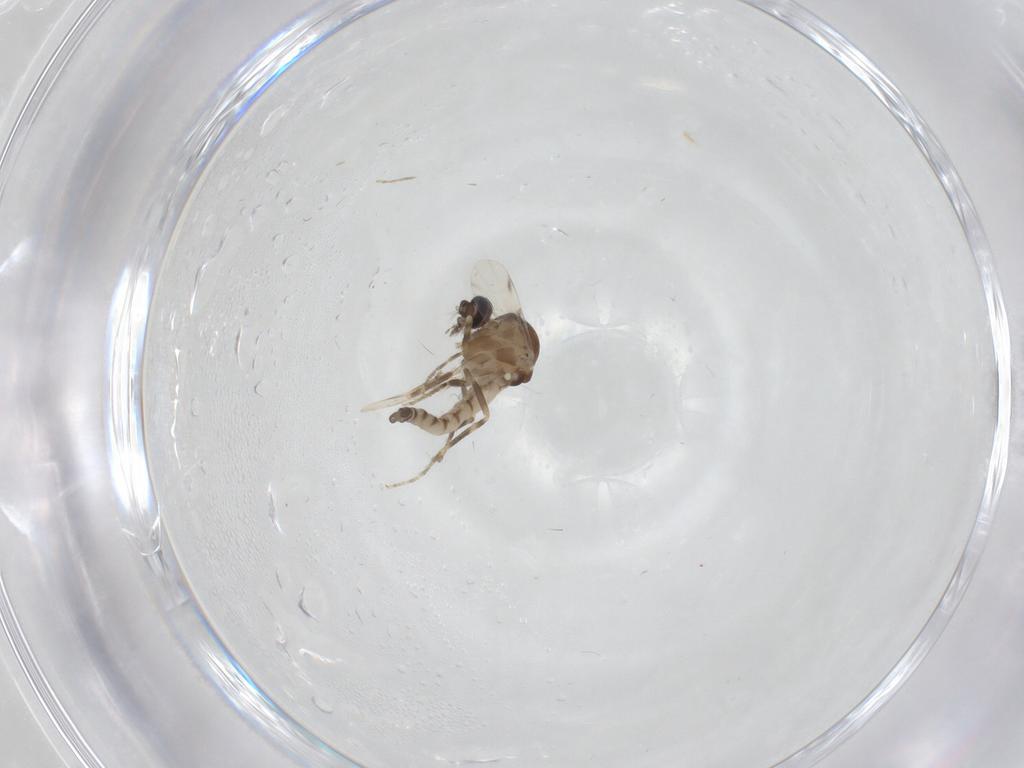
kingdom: Animalia
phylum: Arthropoda
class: Insecta
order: Diptera
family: Ceratopogonidae
